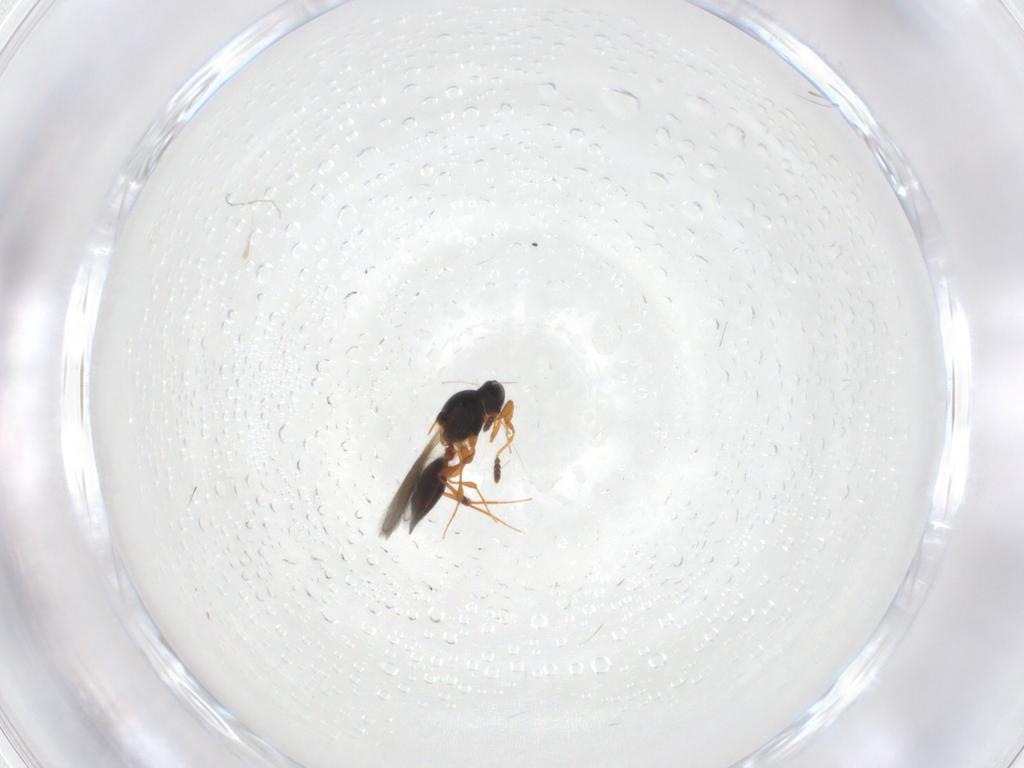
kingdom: Animalia
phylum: Arthropoda
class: Insecta
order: Hymenoptera
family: Platygastridae
